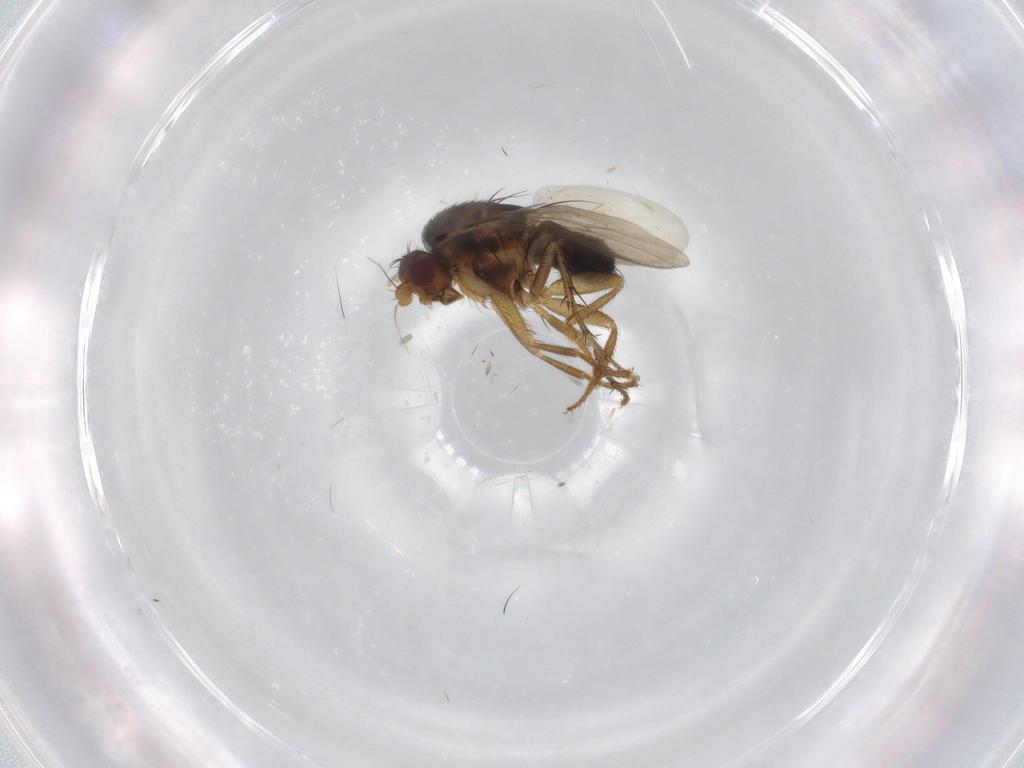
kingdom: Animalia
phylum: Arthropoda
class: Insecta
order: Diptera
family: Sphaeroceridae
